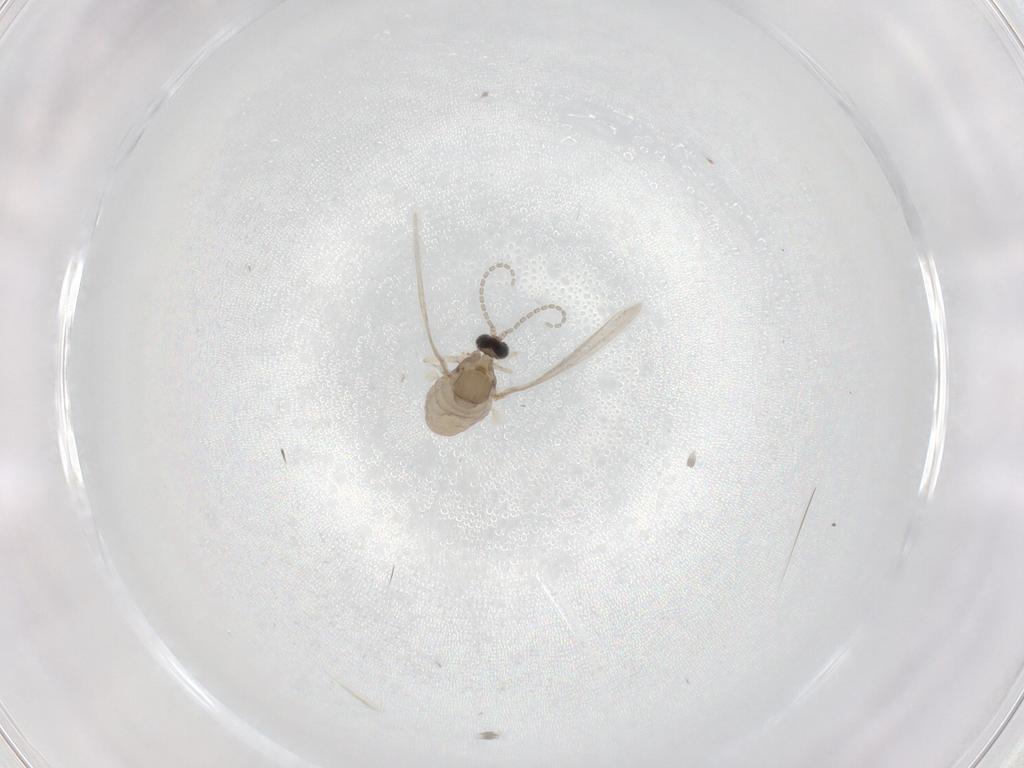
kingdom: Animalia
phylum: Arthropoda
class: Insecta
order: Diptera
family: Cecidomyiidae
